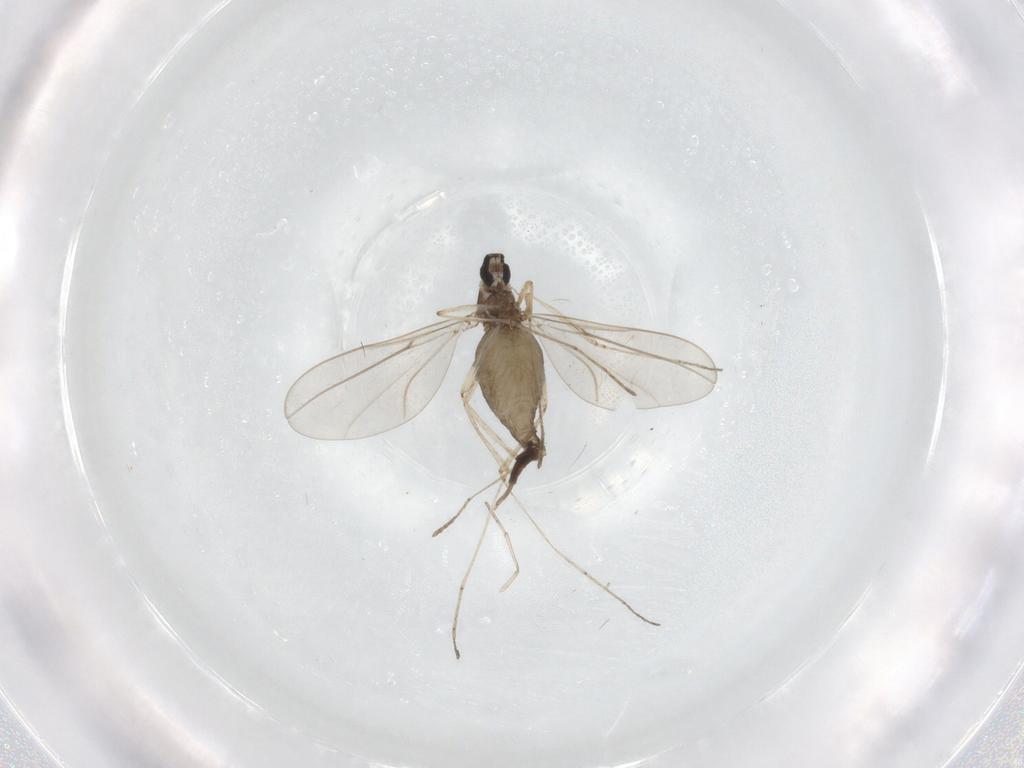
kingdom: Animalia
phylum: Arthropoda
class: Insecta
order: Diptera
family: Cecidomyiidae
